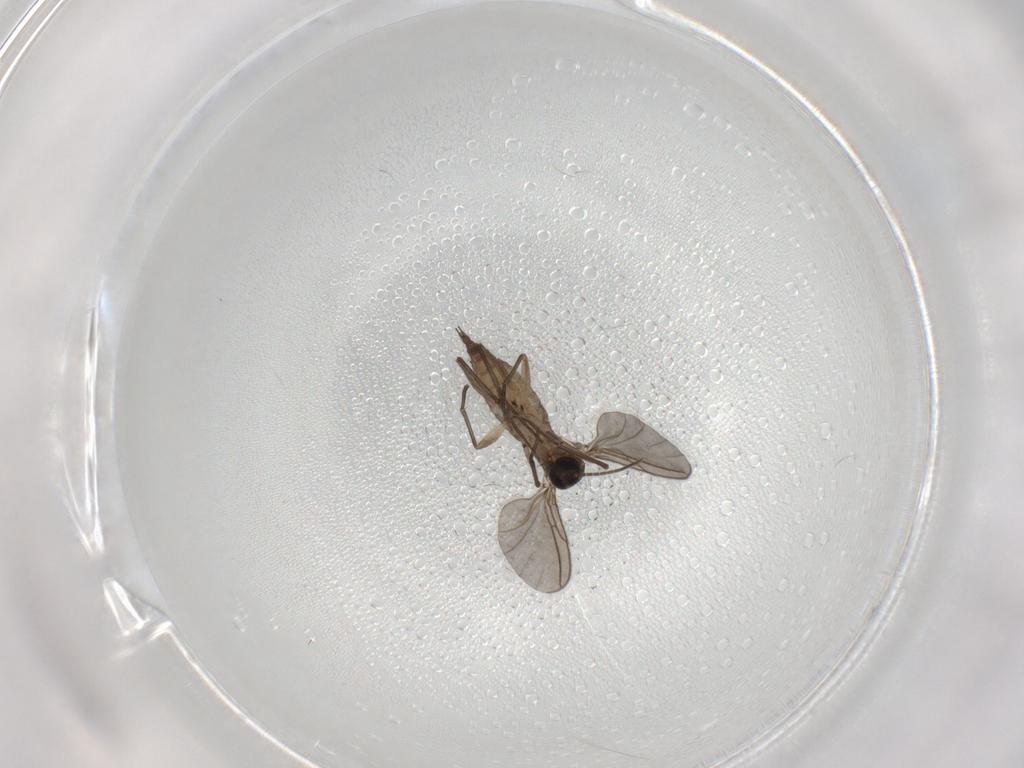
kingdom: Animalia
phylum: Arthropoda
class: Insecta
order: Diptera
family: Sciaridae
